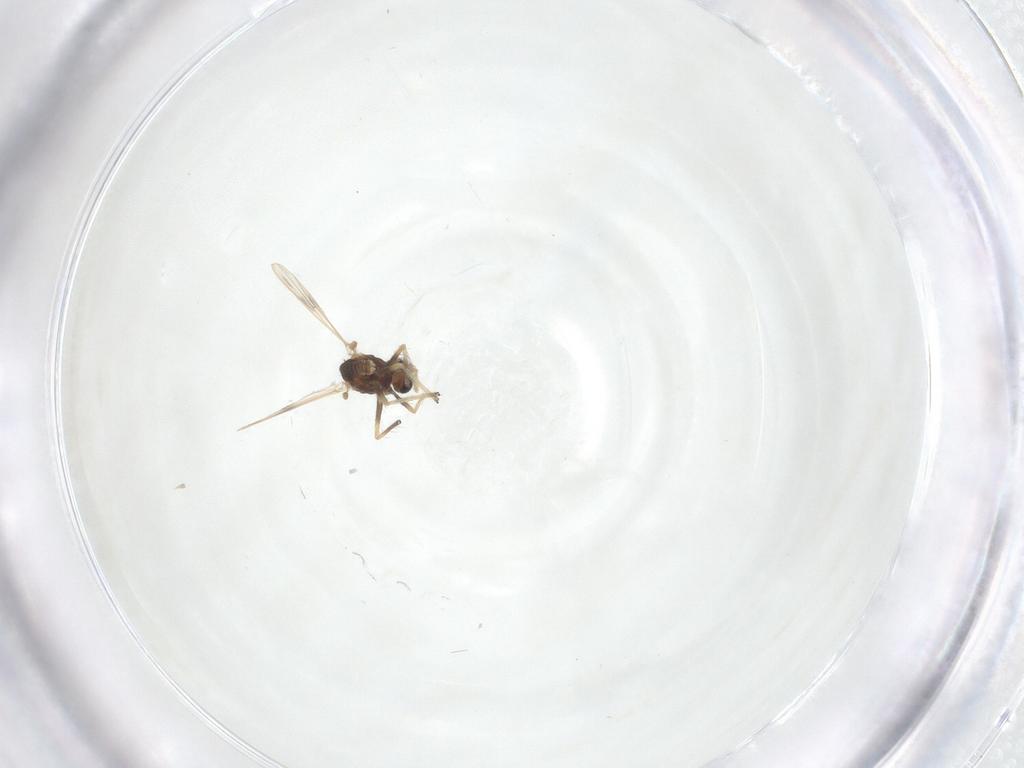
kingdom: Animalia
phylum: Arthropoda
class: Insecta
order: Diptera
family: Chironomidae
